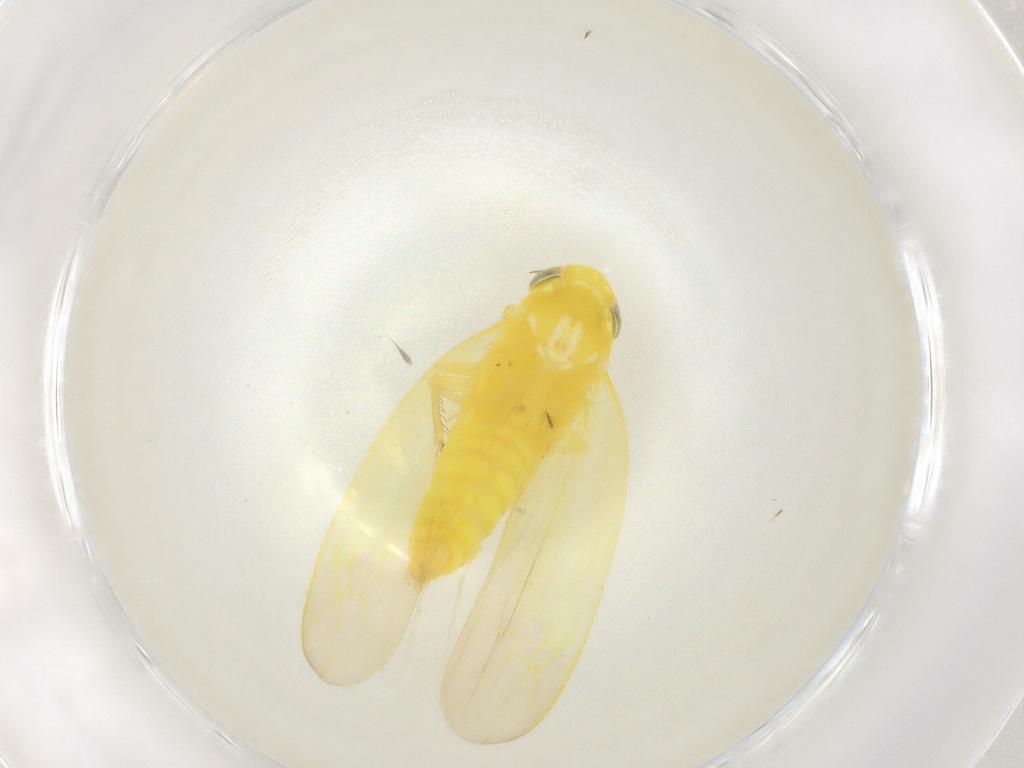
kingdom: Animalia
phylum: Arthropoda
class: Insecta
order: Hemiptera
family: Cicadellidae
